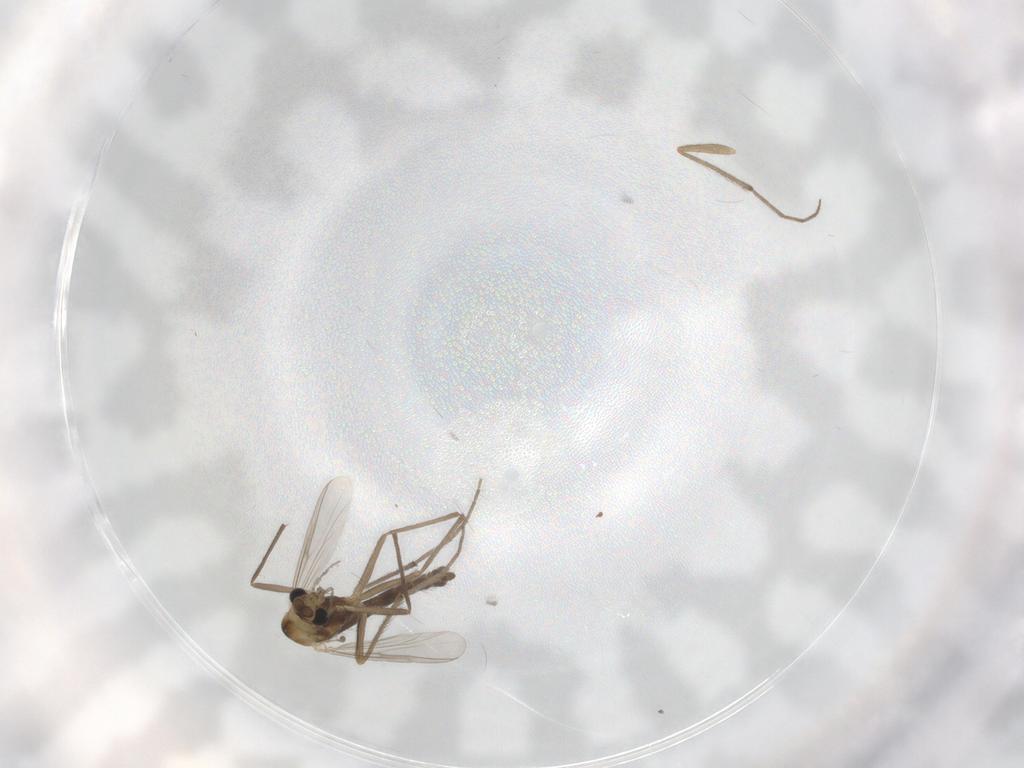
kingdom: Animalia
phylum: Arthropoda
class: Insecta
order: Diptera
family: Chironomidae
